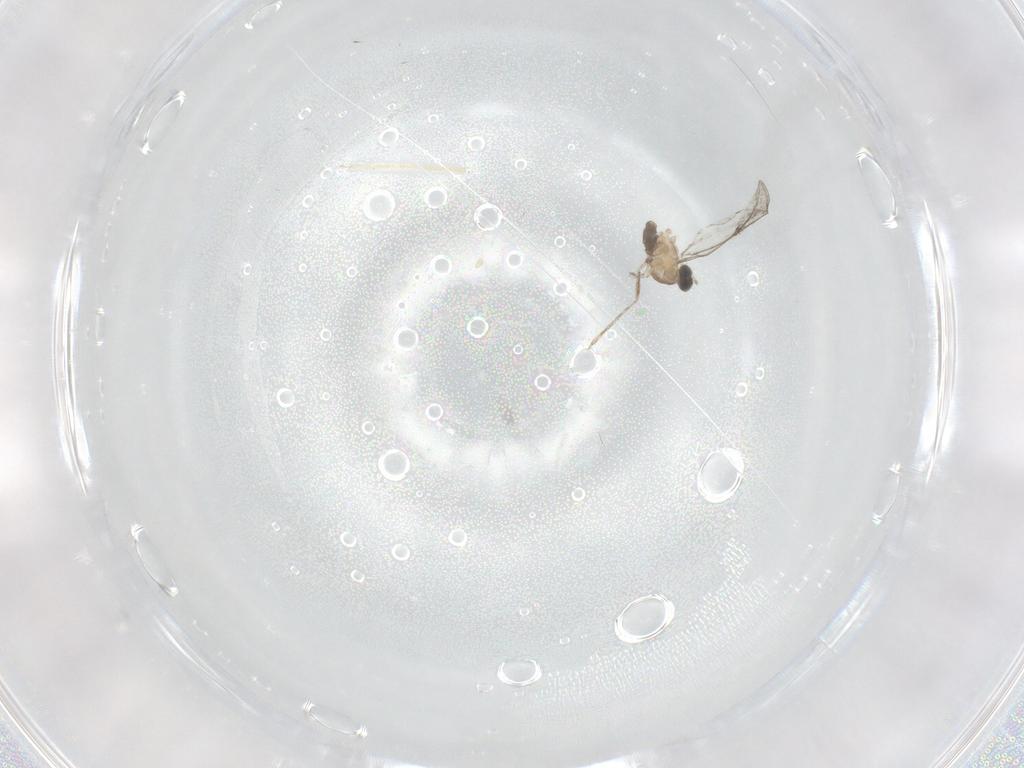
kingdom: Animalia
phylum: Arthropoda
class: Insecta
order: Diptera
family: Cecidomyiidae
